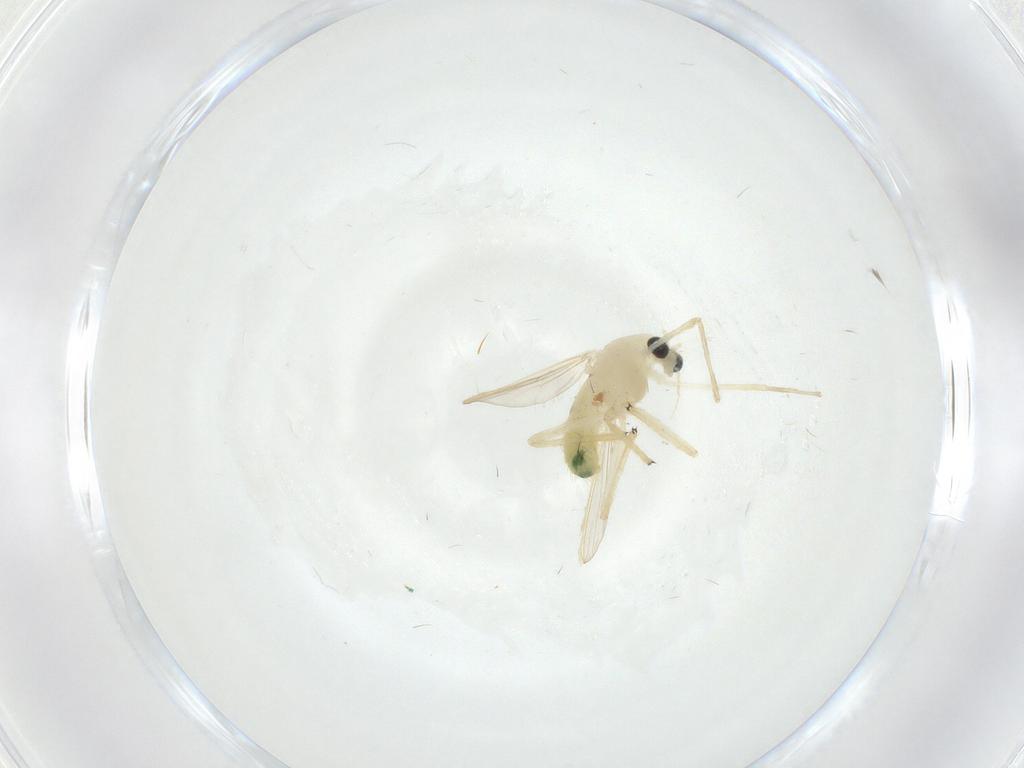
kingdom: Animalia
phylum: Arthropoda
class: Insecta
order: Diptera
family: Chironomidae
